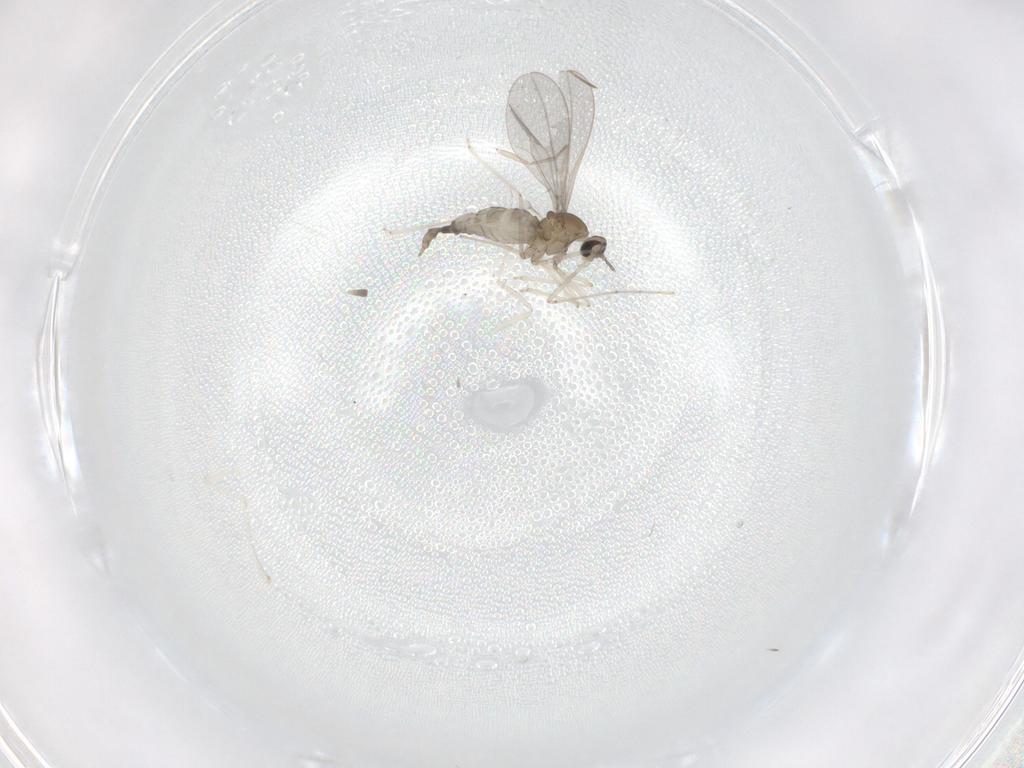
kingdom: Animalia
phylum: Arthropoda
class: Insecta
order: Diptera
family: Cecidomyiidae
